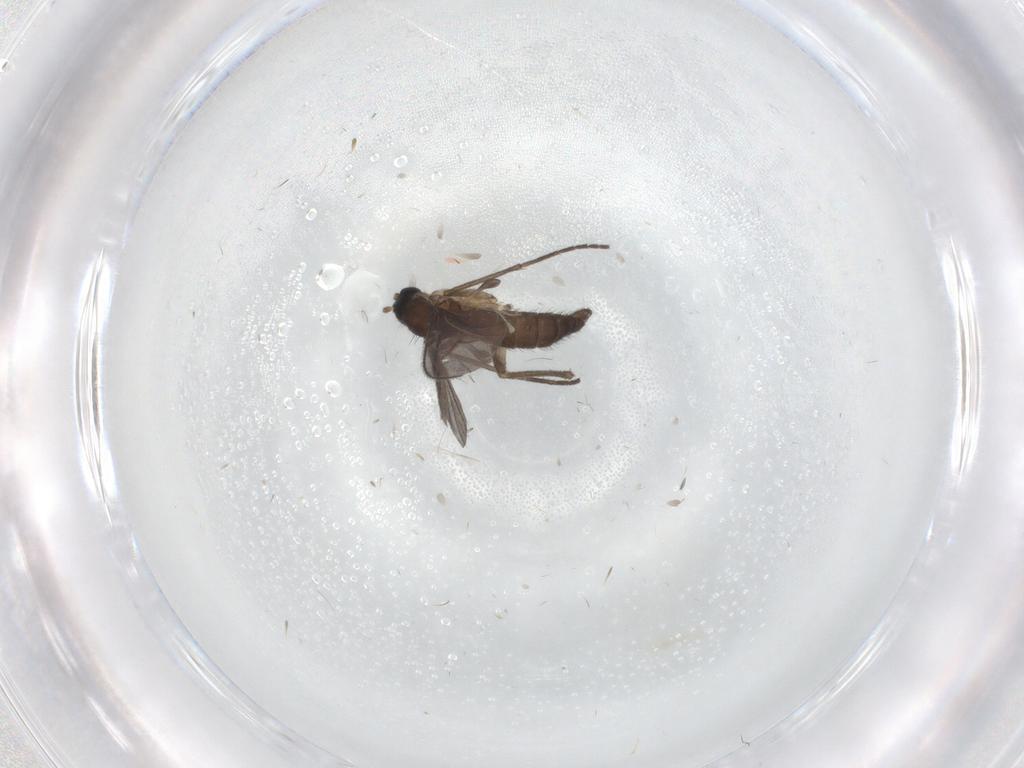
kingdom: Animalia
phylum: Arthropoda
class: Insecta
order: Diptera
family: Sciaridae
